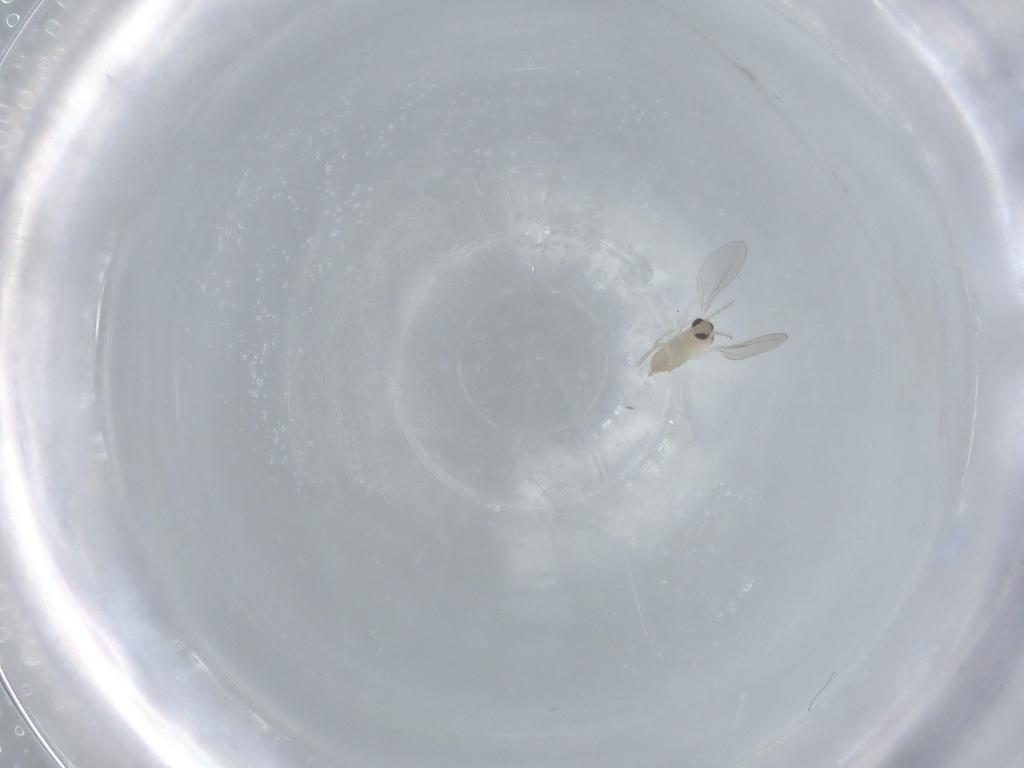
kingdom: Animalia
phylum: Arthropoda
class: Insecta
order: Diptera
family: Cecidomyiidae
